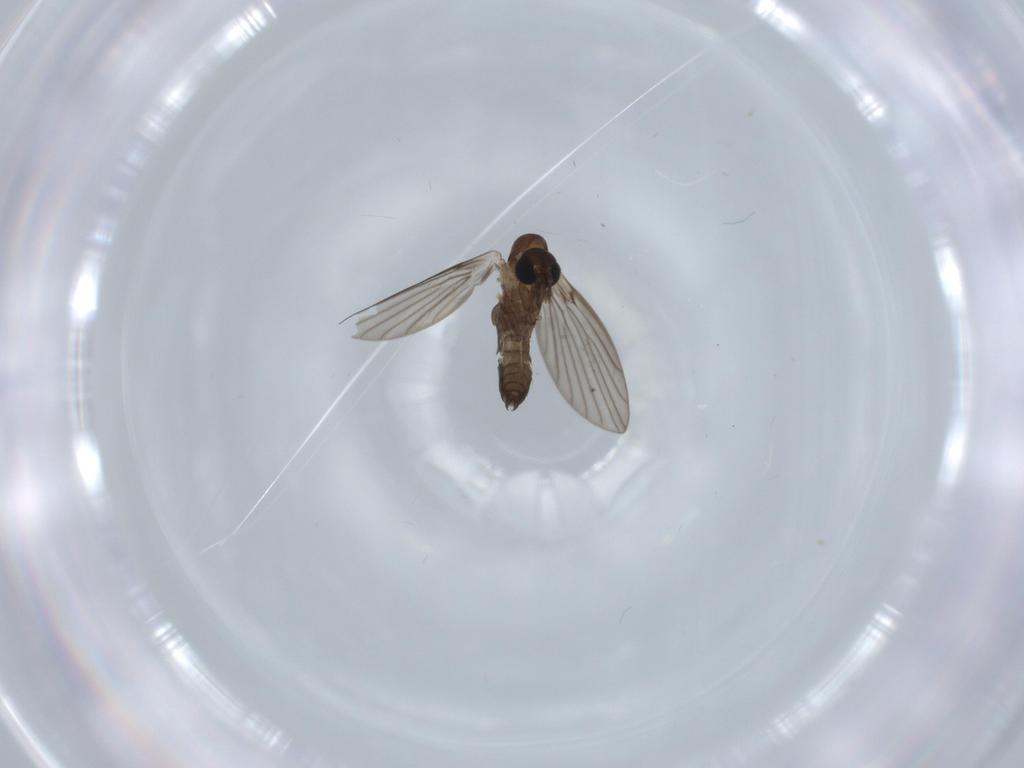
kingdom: Animalia
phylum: Arthropoda
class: Insecta
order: Diptera
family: Psychodidae
